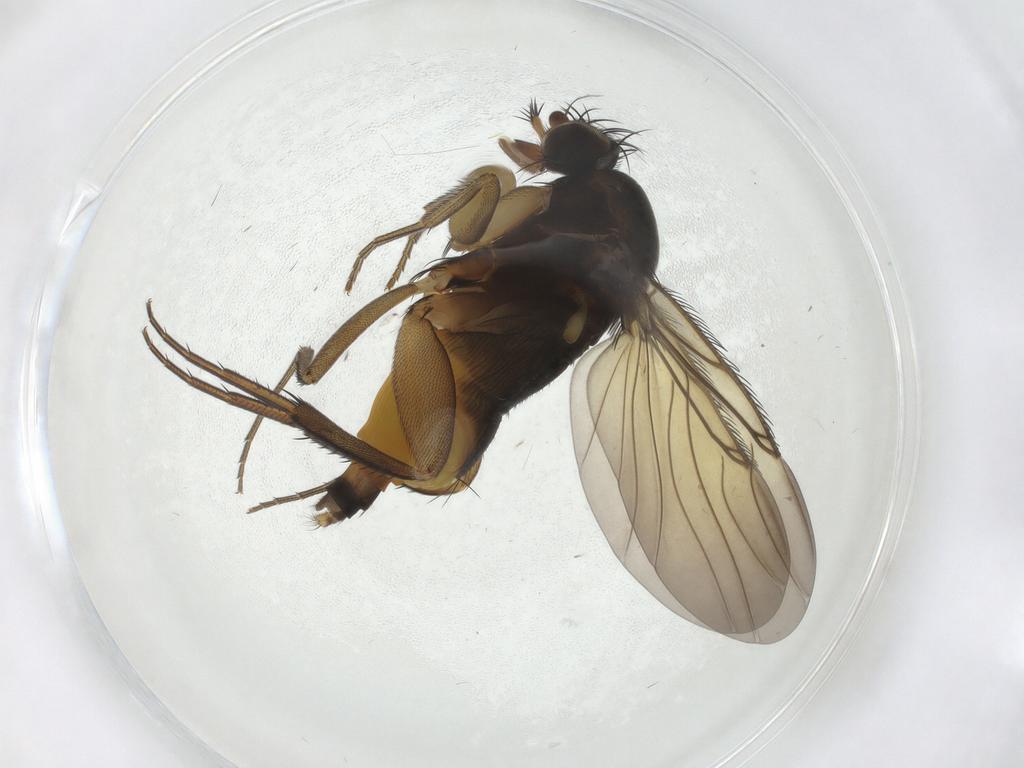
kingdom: Animalia
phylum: Arthropoda
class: Insecta
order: Diptera
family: Phoridae
